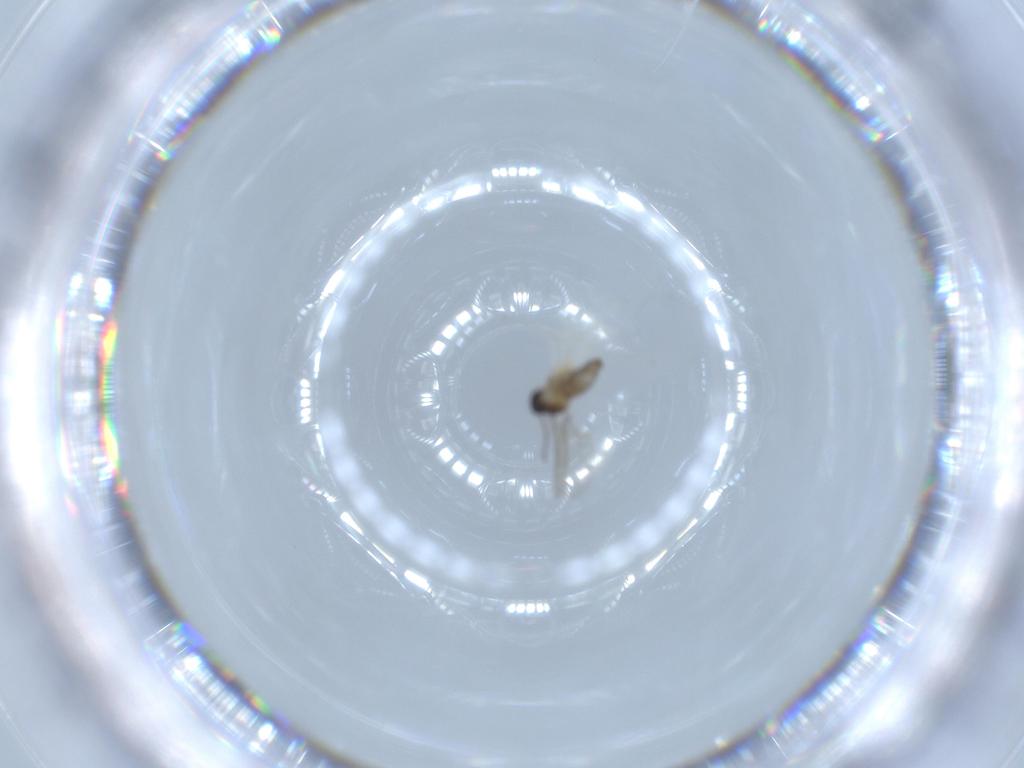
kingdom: Animalia
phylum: Arthropoda
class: Insecta
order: Diptera
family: Cecidomyiidae
